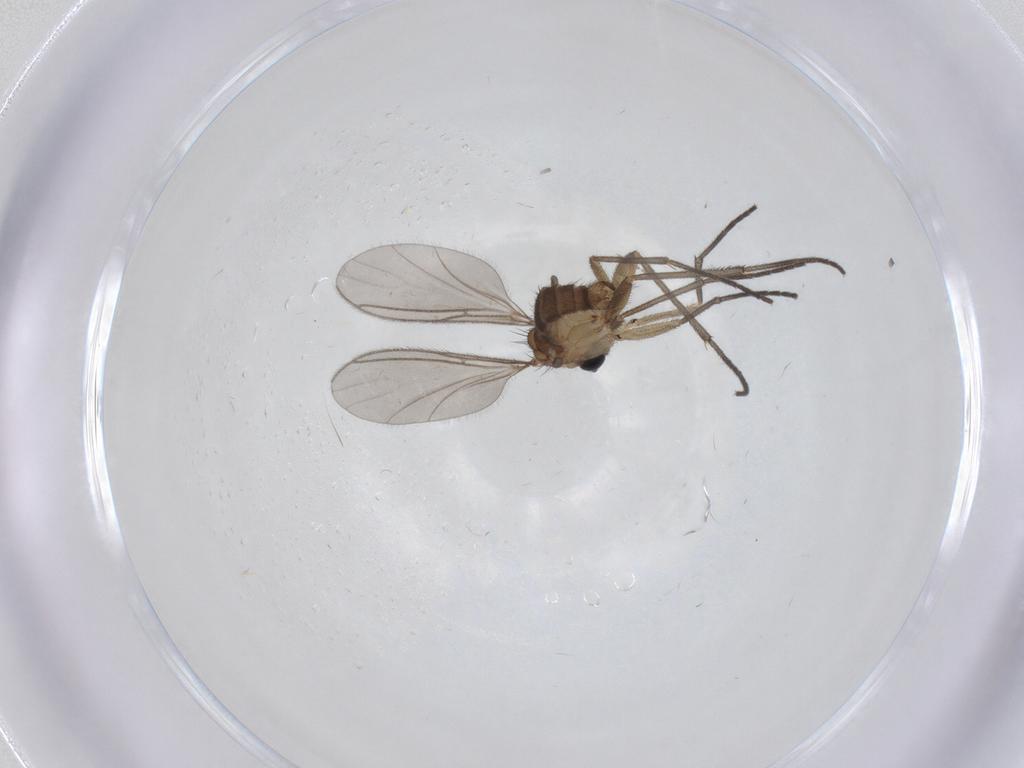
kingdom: Animalia
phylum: Arthropoda
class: Insecta
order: Diptera
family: Sciaridae
